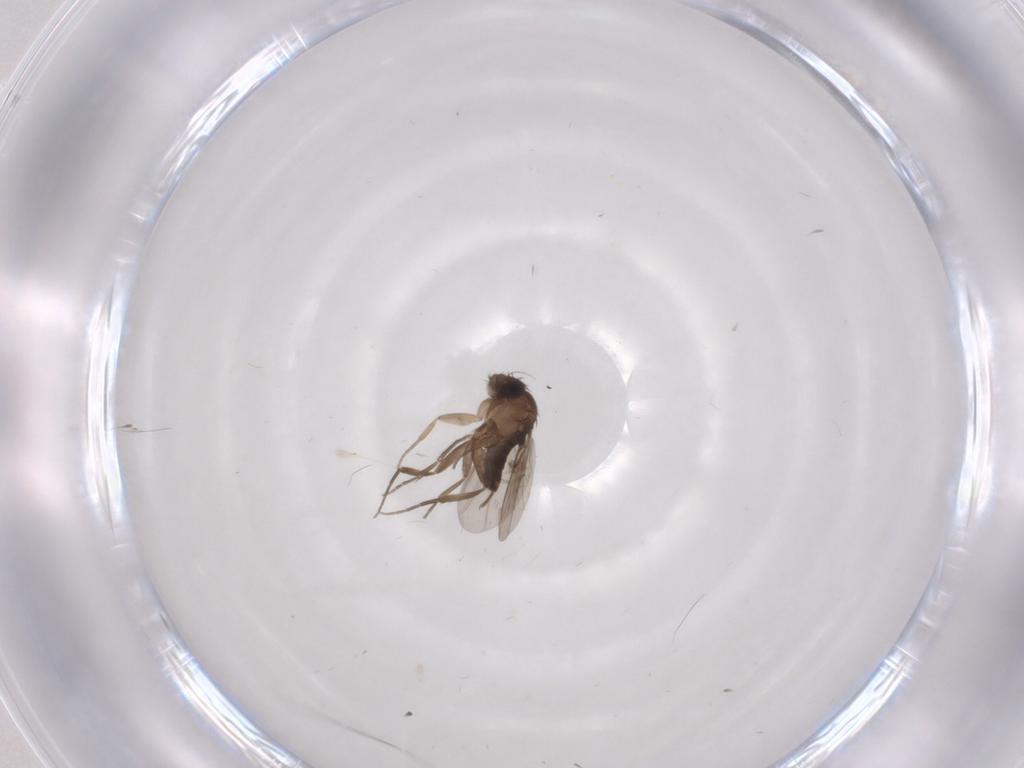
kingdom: Animalia
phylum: Arthropoda
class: Insecta
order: Diptera
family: Phoridae
